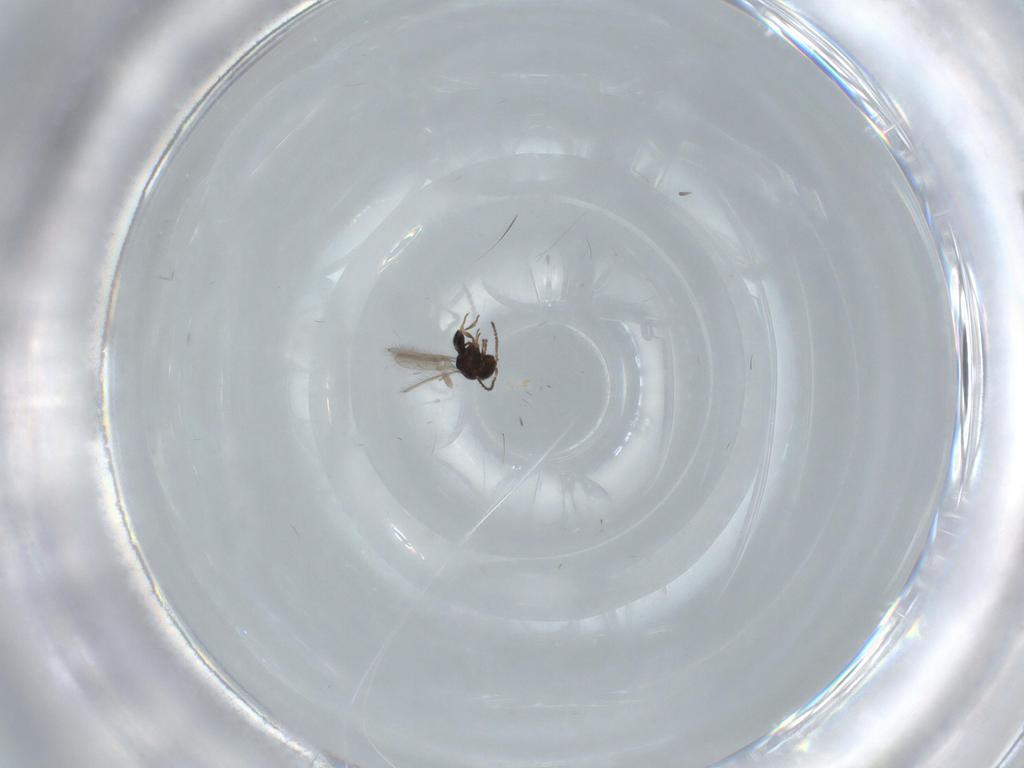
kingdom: Animalia
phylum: Arthropoda
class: Insecta
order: Hymenoptera
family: Scelionidae
